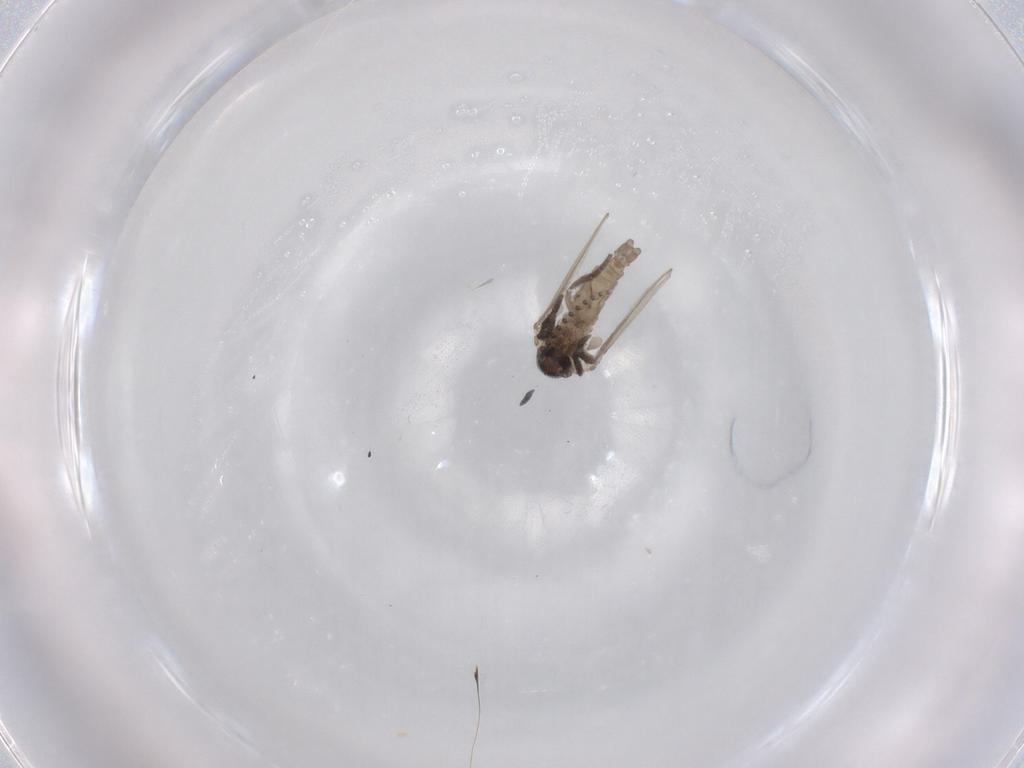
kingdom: Animalia
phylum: Arthropoda
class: Insecta
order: Diptera
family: Psychodidae
